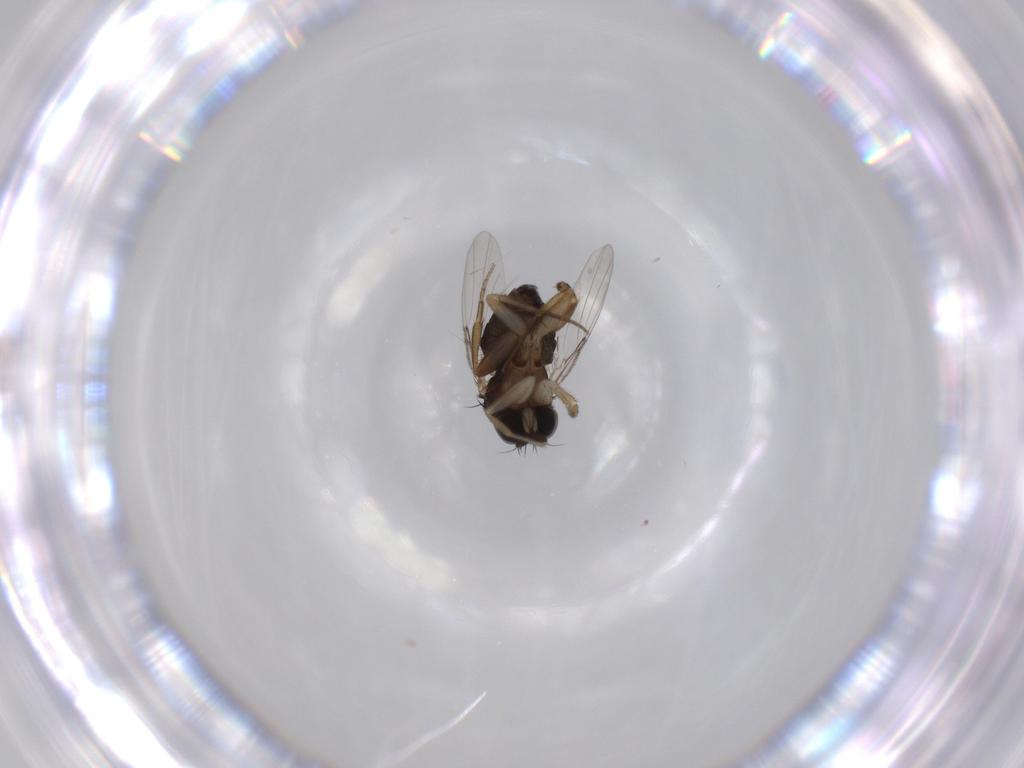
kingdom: Animalia
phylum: Arthropoda
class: Insecta
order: Diptera
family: Phoridae
